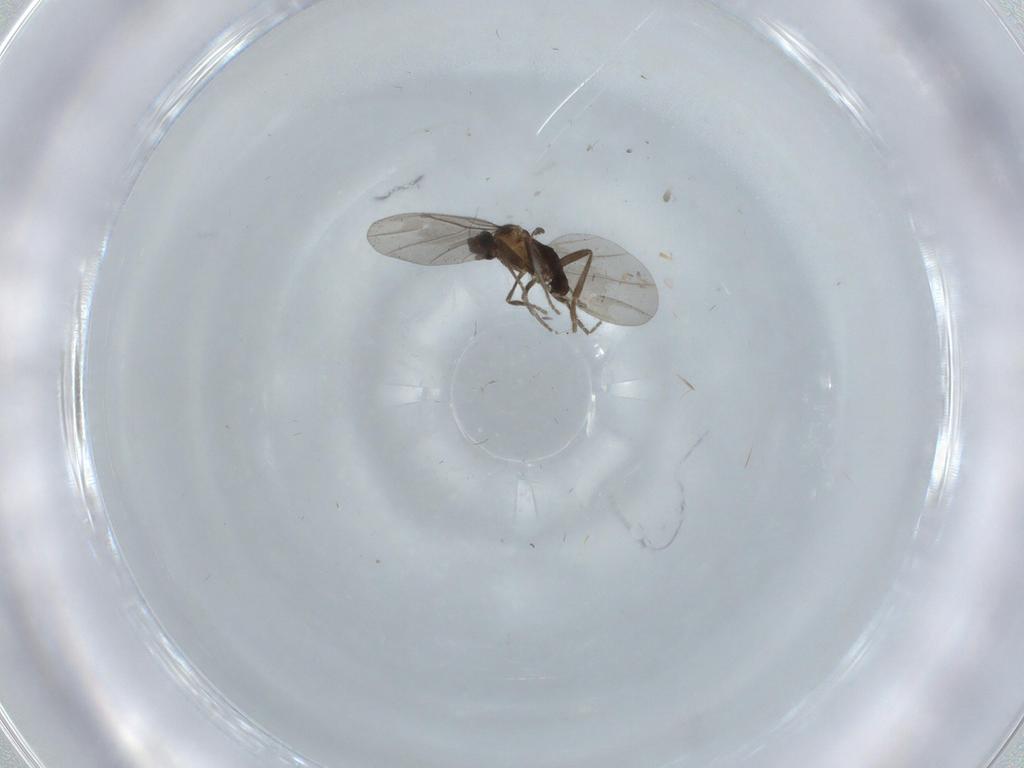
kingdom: Animalia
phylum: Arthropoda
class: Insecta
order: Diptera
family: Phoridae
